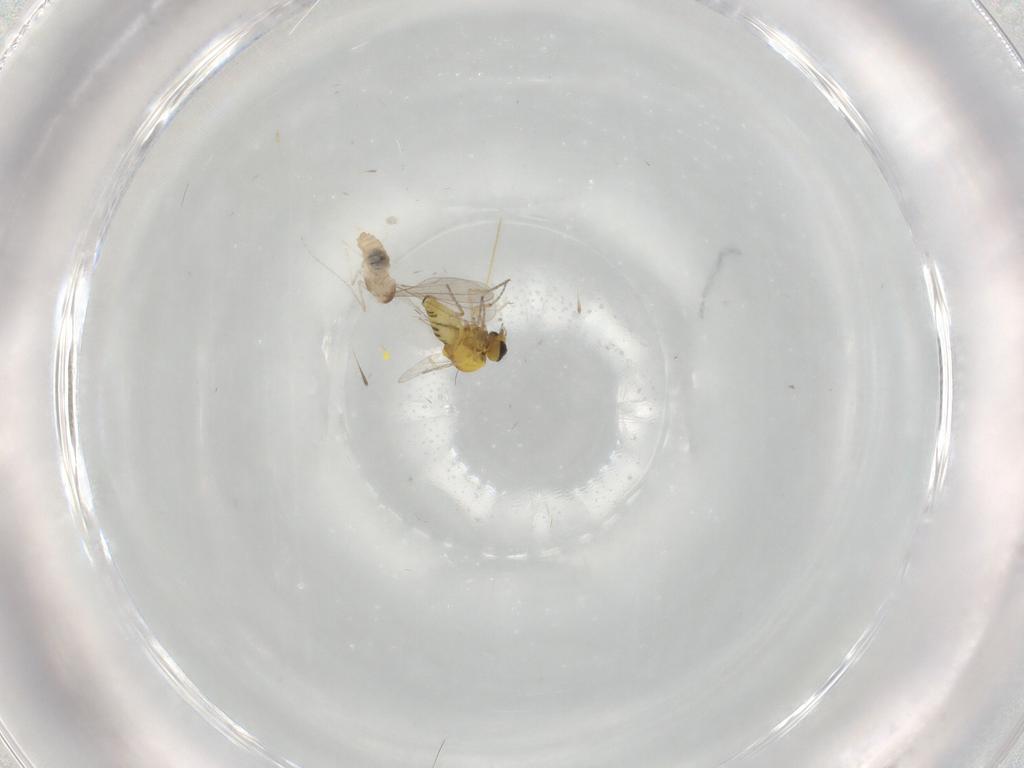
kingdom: Animalia
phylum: Arthropoda
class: Insecta
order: Diptera
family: Cecidomyiidae
